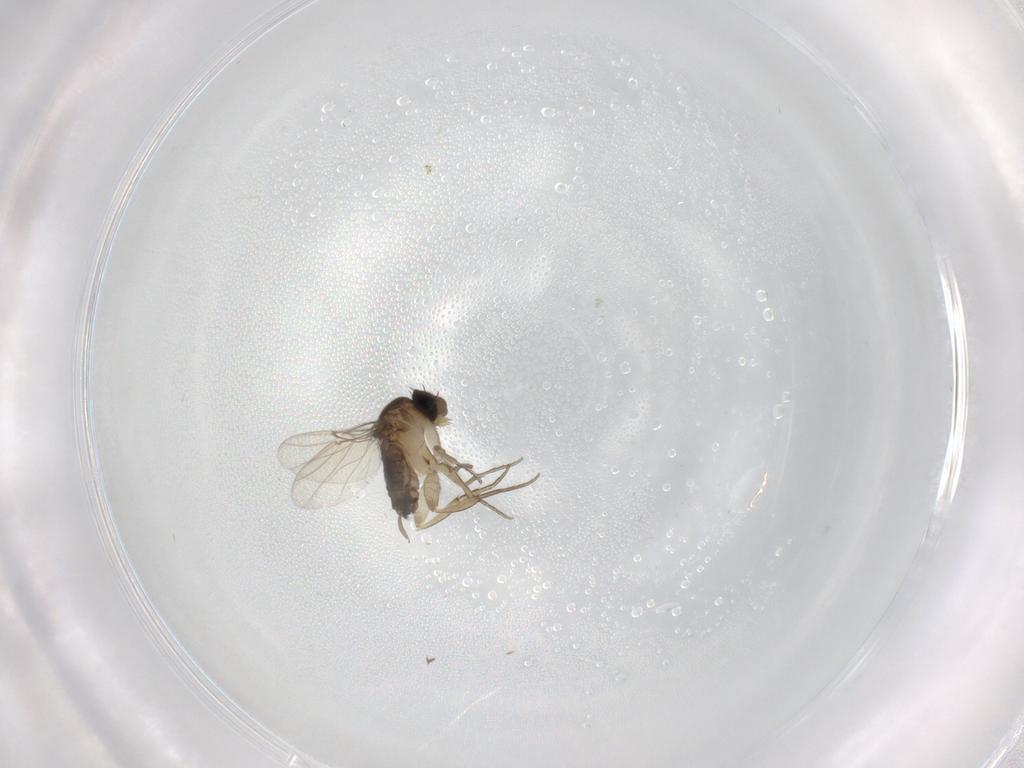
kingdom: Animalia
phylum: Arthropoda
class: Insecta
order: Diptera
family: Phoridae
